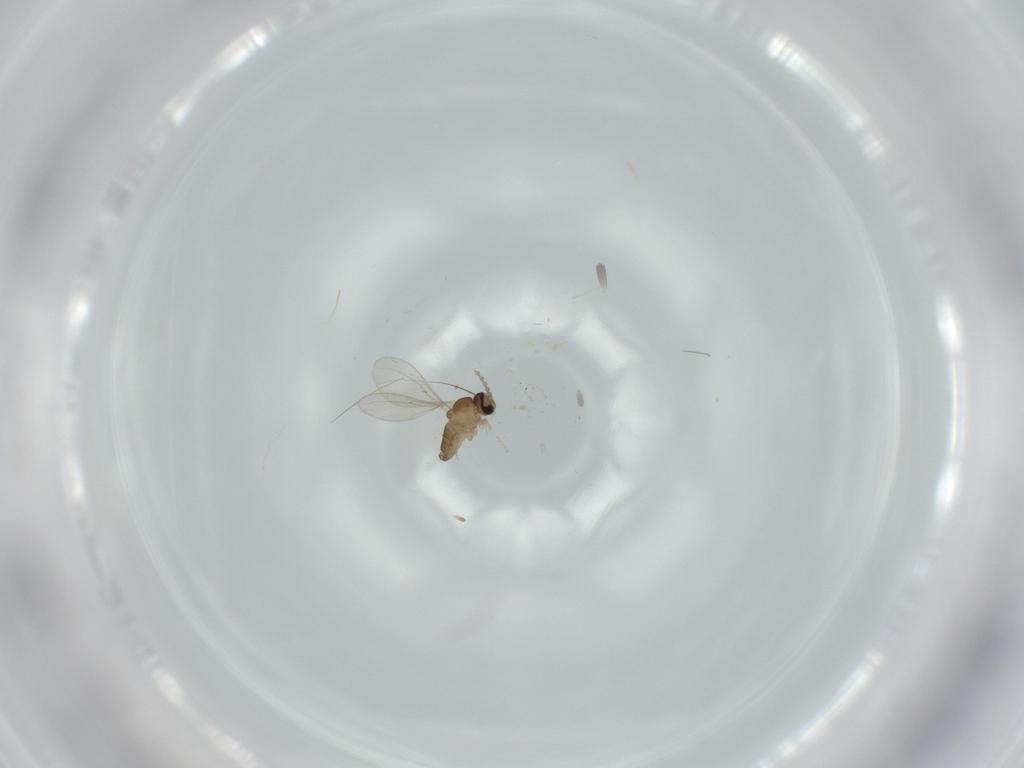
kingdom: Animalia
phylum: Arthropoda
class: Insecta
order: Diptera
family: Cecidomyiidae
